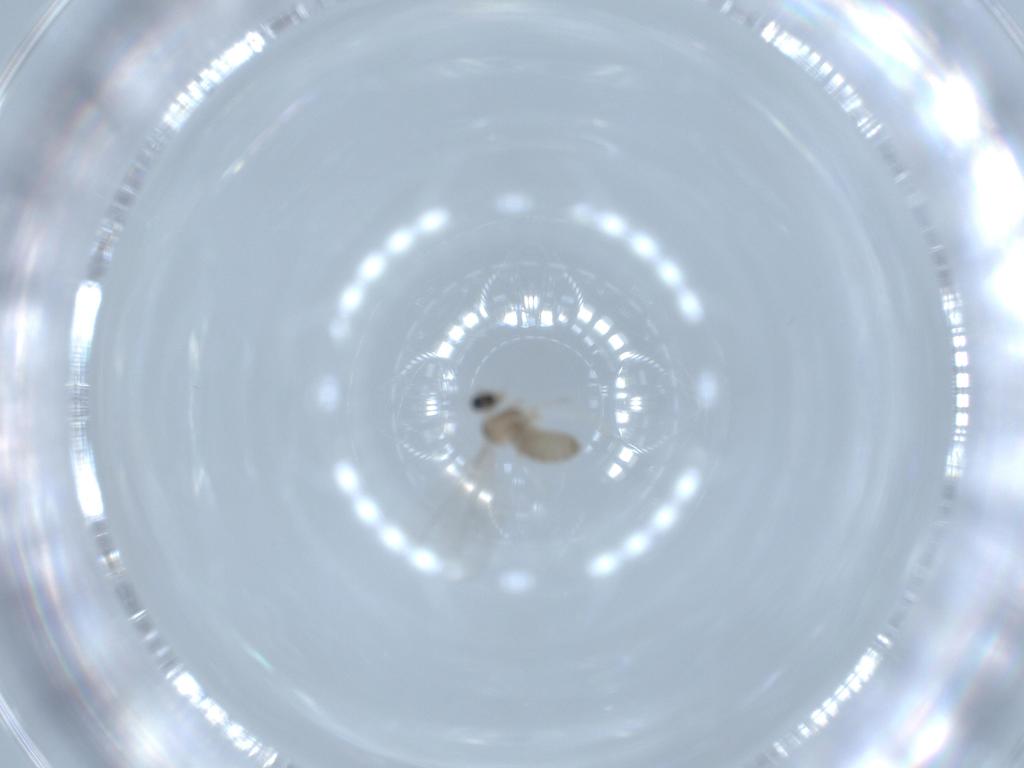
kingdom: Animalia
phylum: Arthropoda
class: Insecta
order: Diptera
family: Cecidomyiidae
